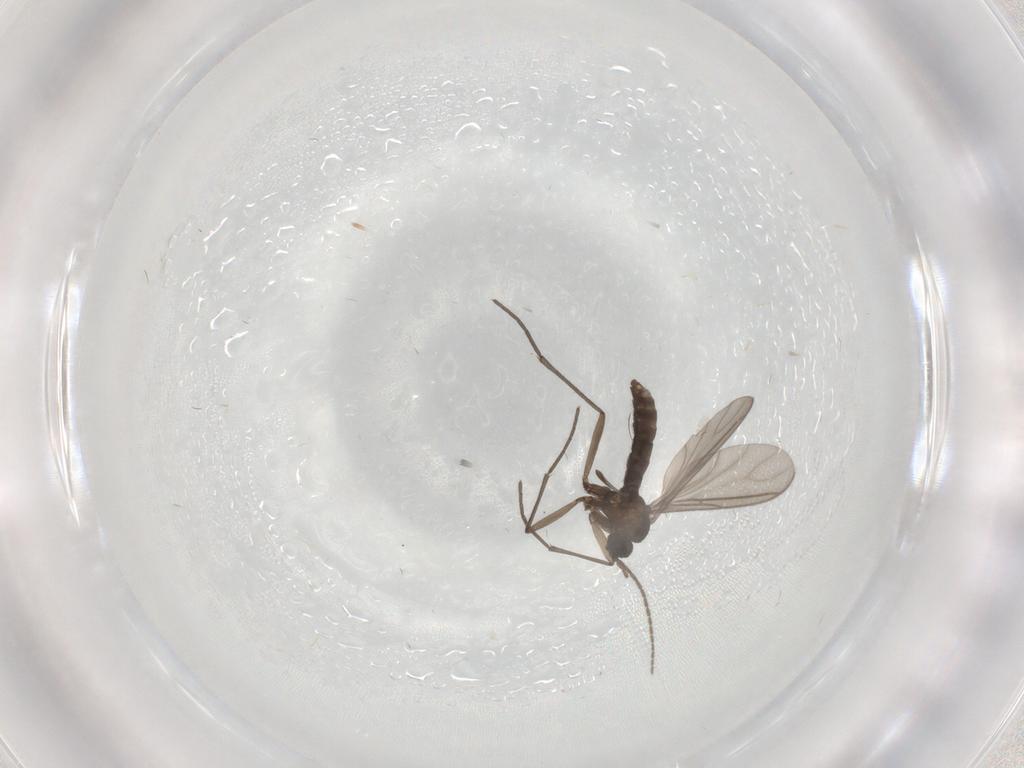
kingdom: Animalia
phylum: Arthropoda
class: Insecta
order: Diptera
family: Sciaridae
